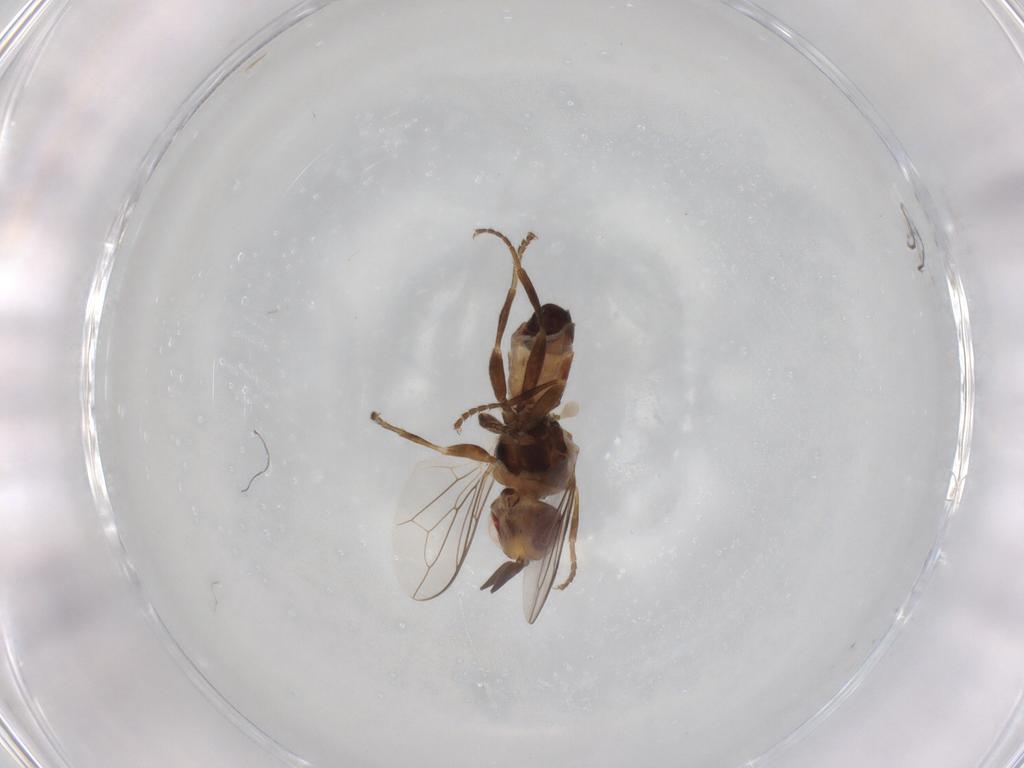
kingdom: Animalia
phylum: Arthropoda
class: Insecta
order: Diptera
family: Conopidae
